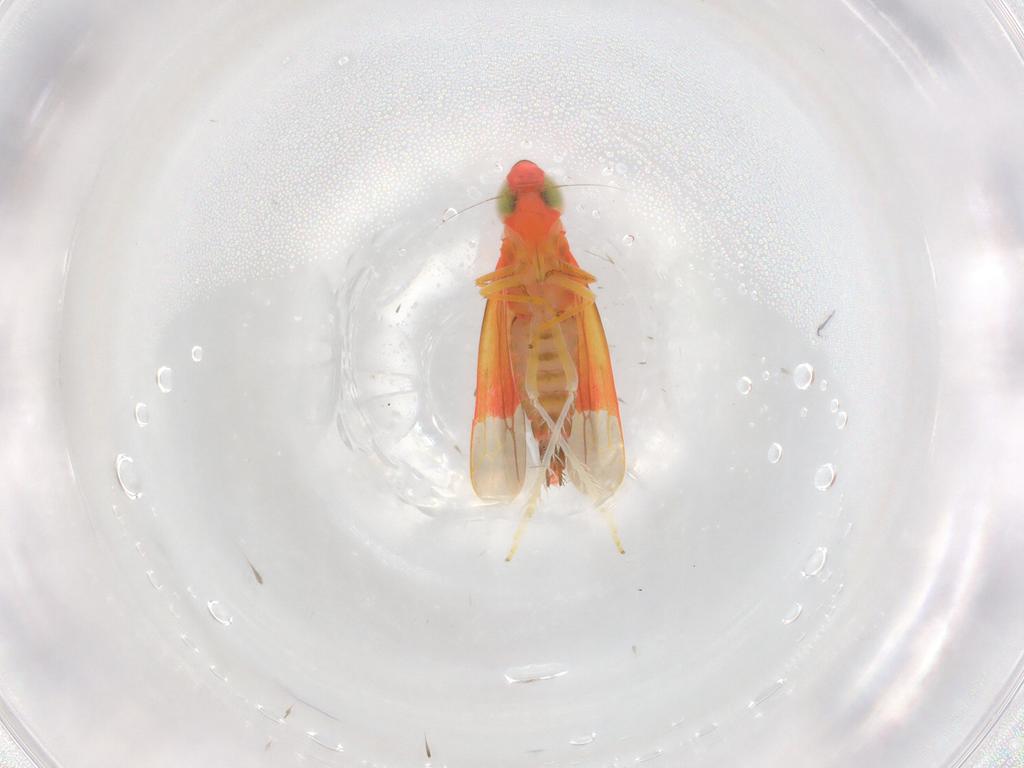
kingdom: Animalia
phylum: Arthropoda
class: Insecta
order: Hemiptera
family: Cicadellidae
